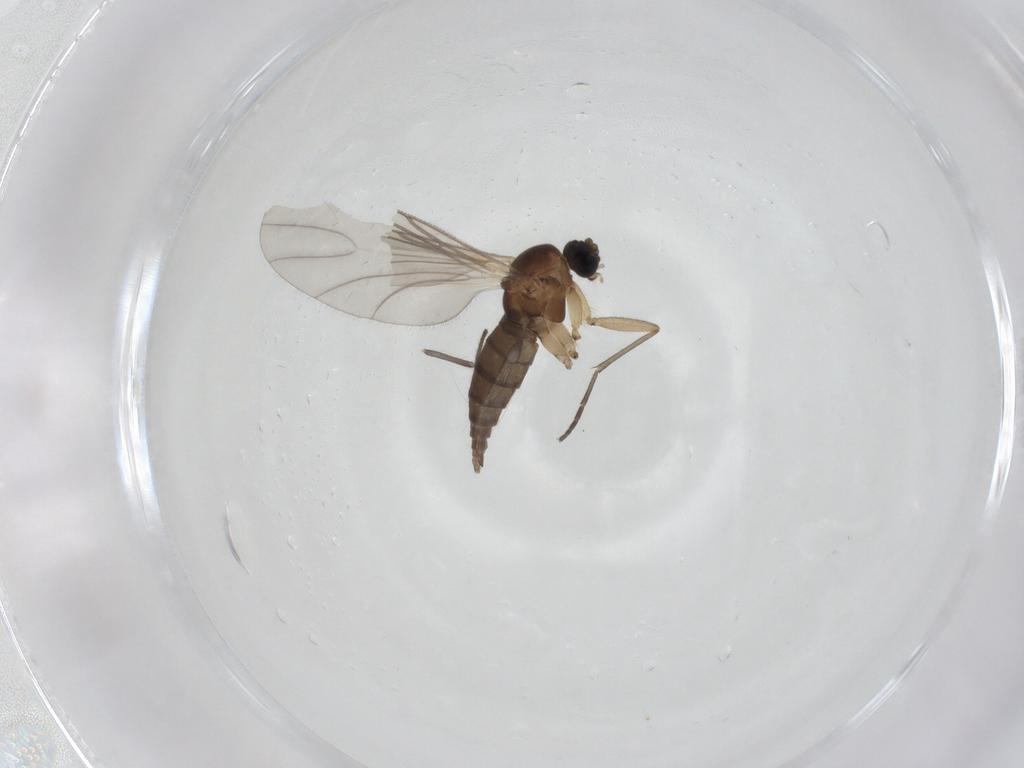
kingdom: Animalia
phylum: Arthropoda
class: Insecta
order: Diptera
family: Sciaridae
